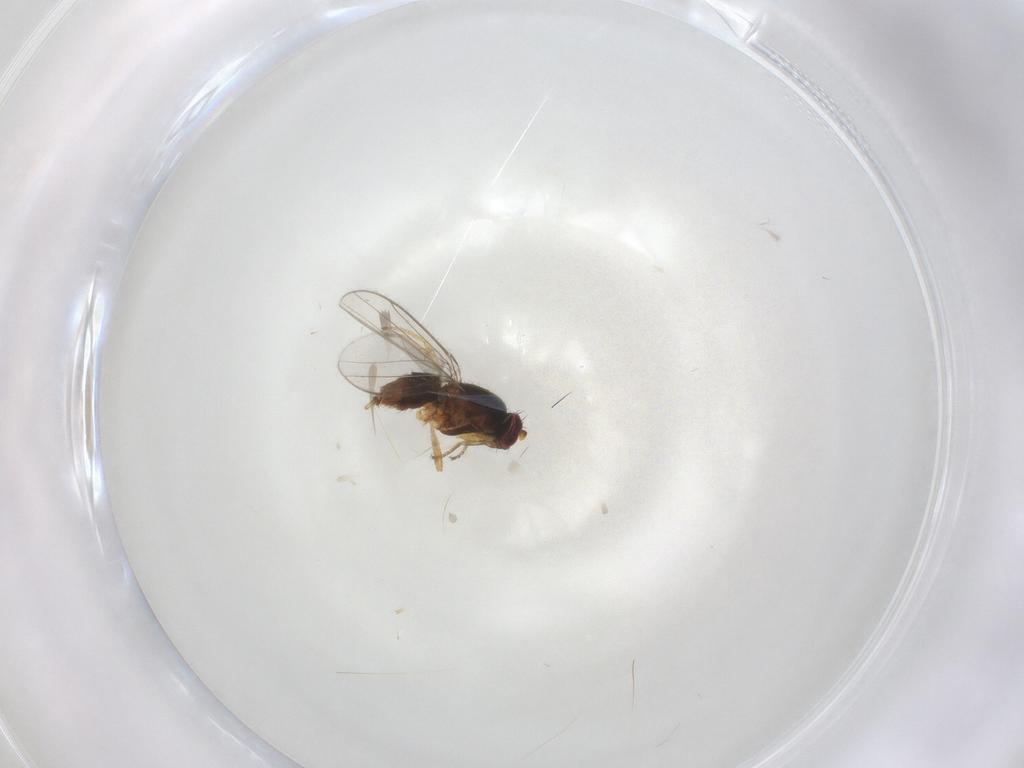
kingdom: Animalia
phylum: Arthropoda
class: Insecta
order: Diptera
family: Chloropidae
